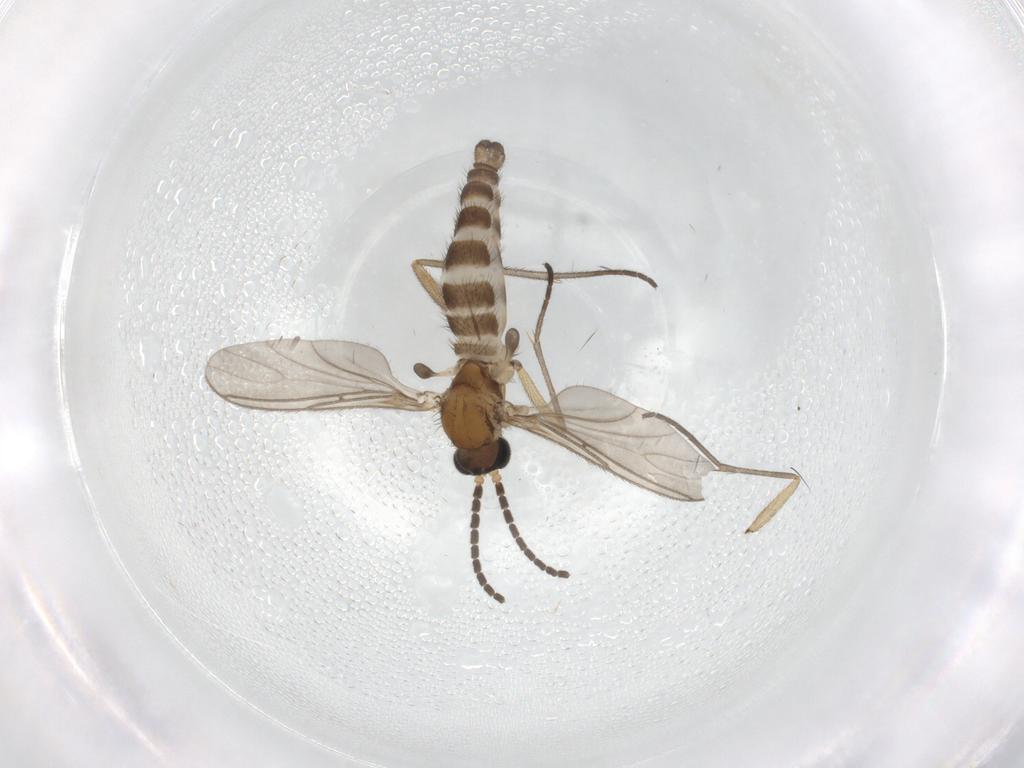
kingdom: Animalia
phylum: Arthropoda
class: Insecta
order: Diptera
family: Sciaridae
